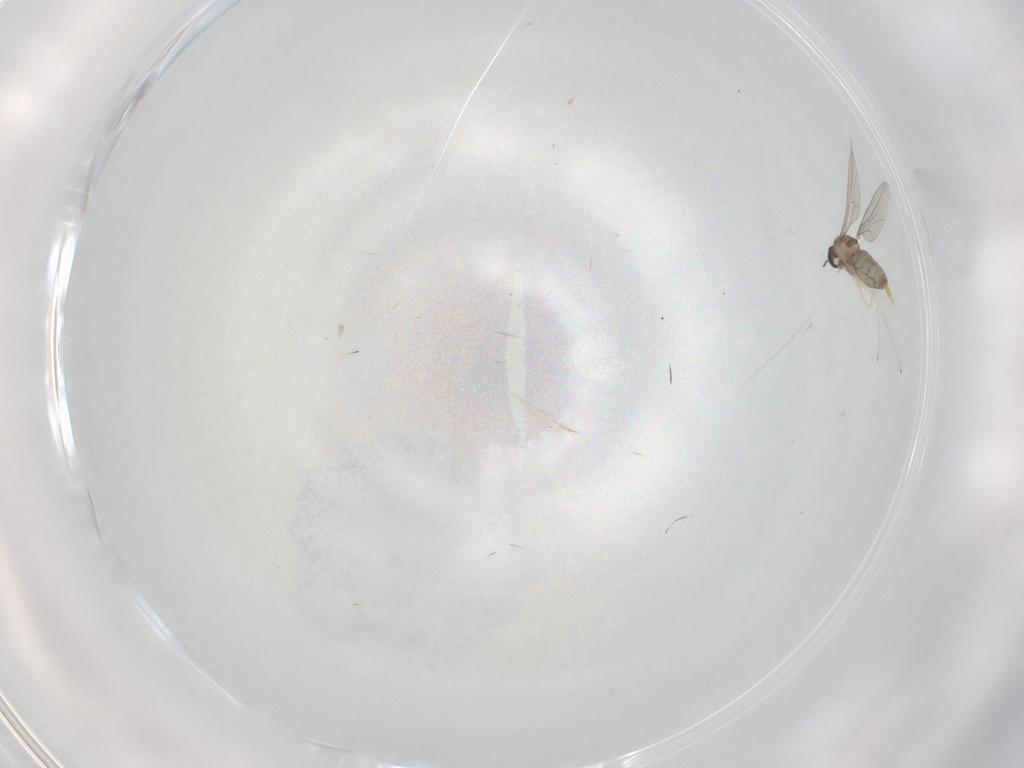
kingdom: Animalia
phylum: Arthropoda
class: Insecta
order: Diptera
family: Cecidomyiidae
